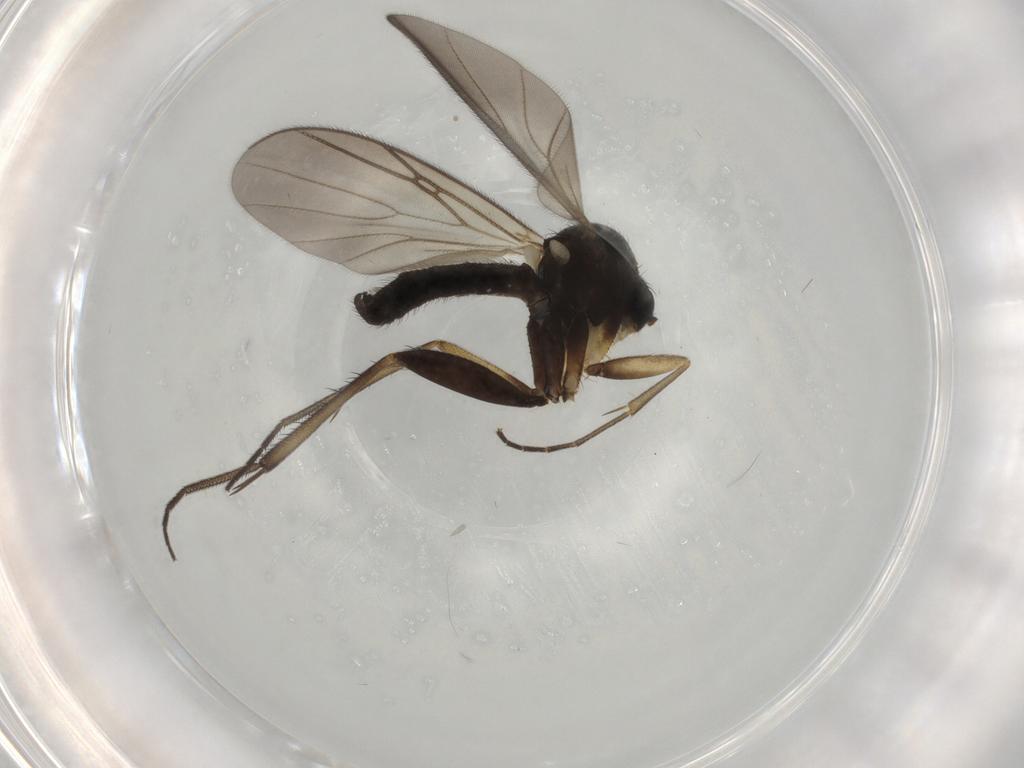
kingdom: Animalia
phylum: Arthropoda
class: Insecta
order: Diptera
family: Mycetophilidae
